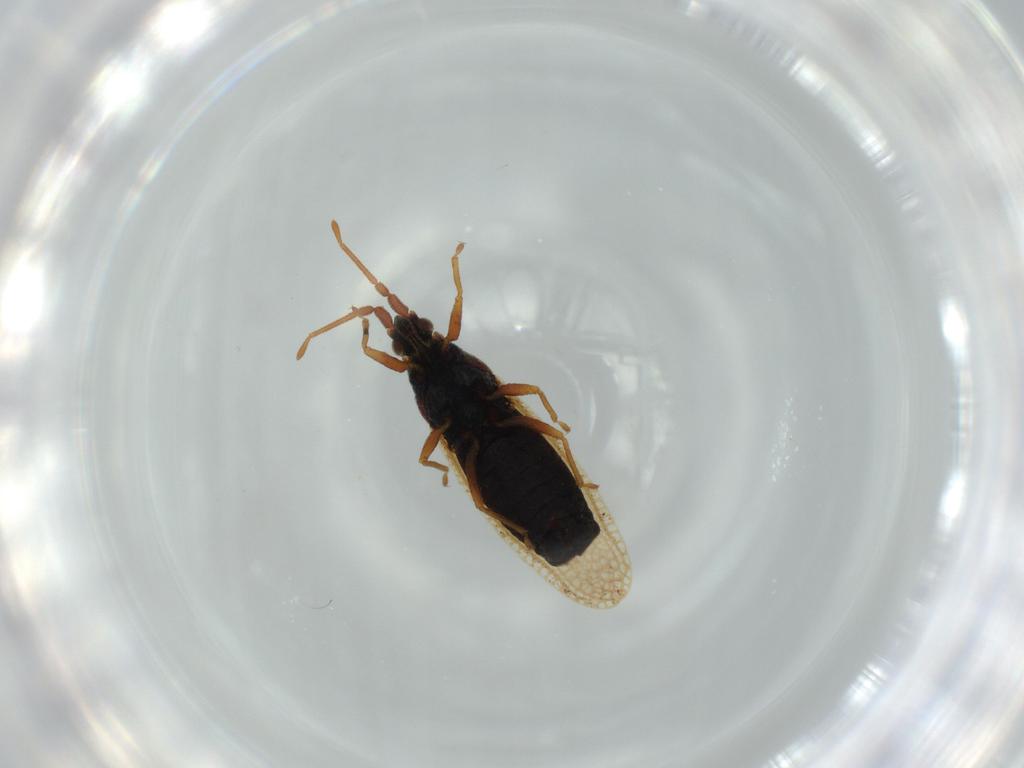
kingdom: Animalia
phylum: Arthropoda
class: Insecta
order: Hemiptera
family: Tingidae
